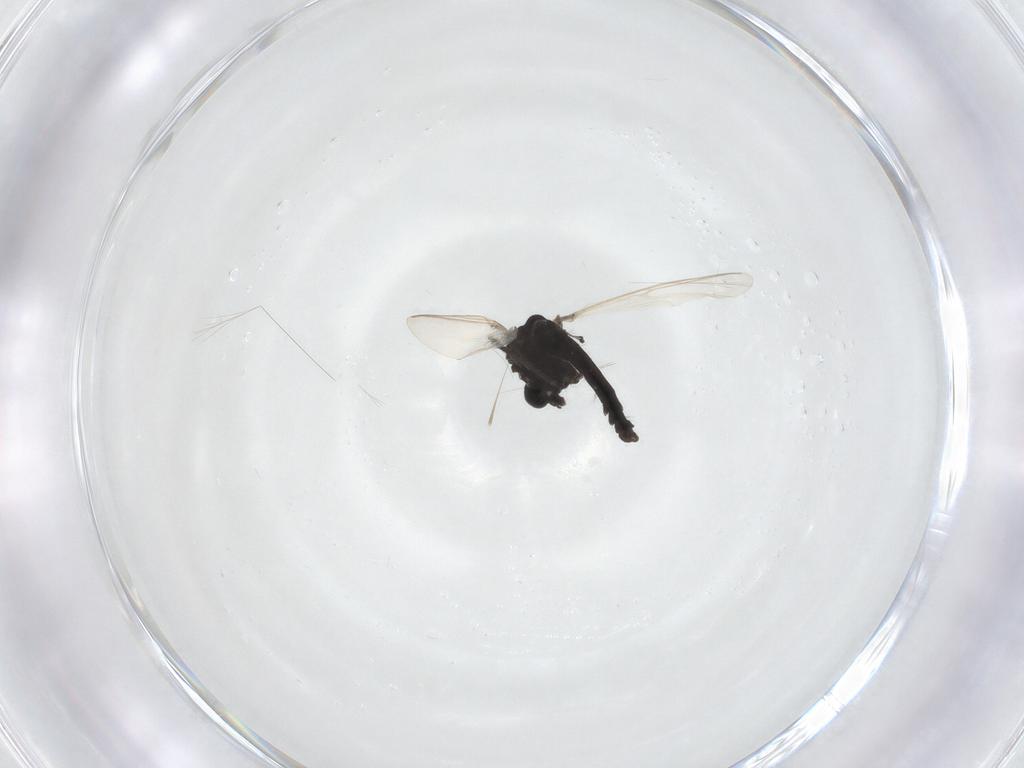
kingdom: Animalia
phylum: Arthropoda
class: Insecta
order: Diptera
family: Chironomidae
